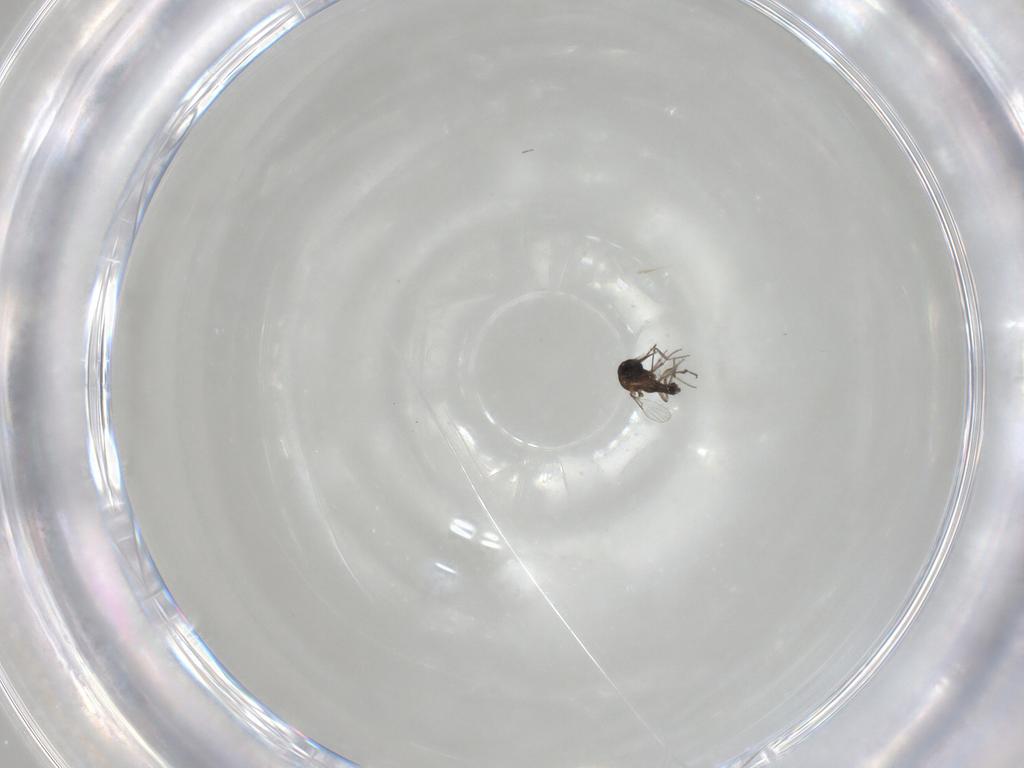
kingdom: Animalia
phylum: Arthropoda
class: Insecta
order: Diptera
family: Ceratopogonidae
